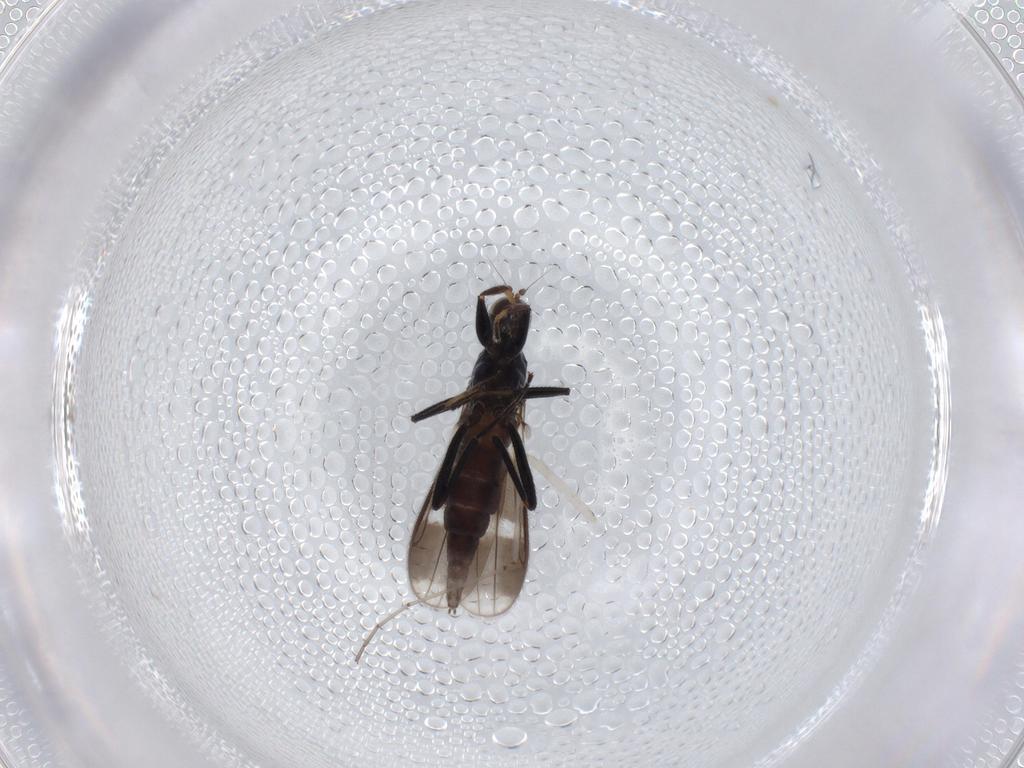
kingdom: Animalia
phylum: Arthropoda
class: Insecta
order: Diptera
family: Hybotidae
